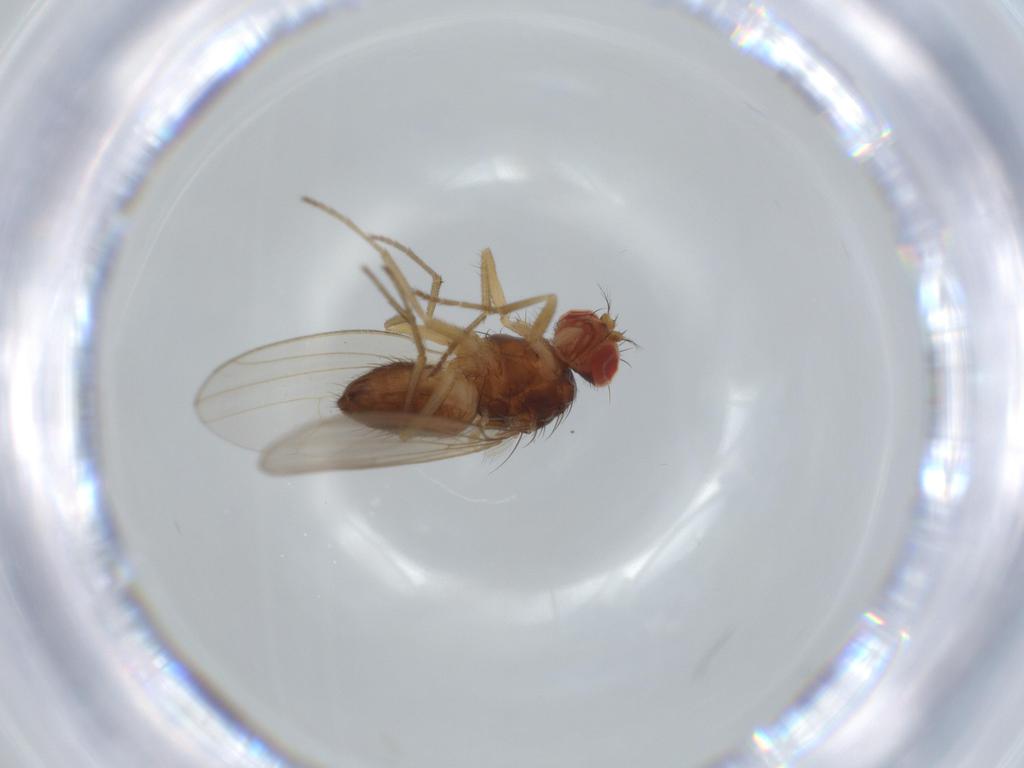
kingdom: Animalia
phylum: Arthropoda
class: Insecta
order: Diptera
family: Drosophilidae
